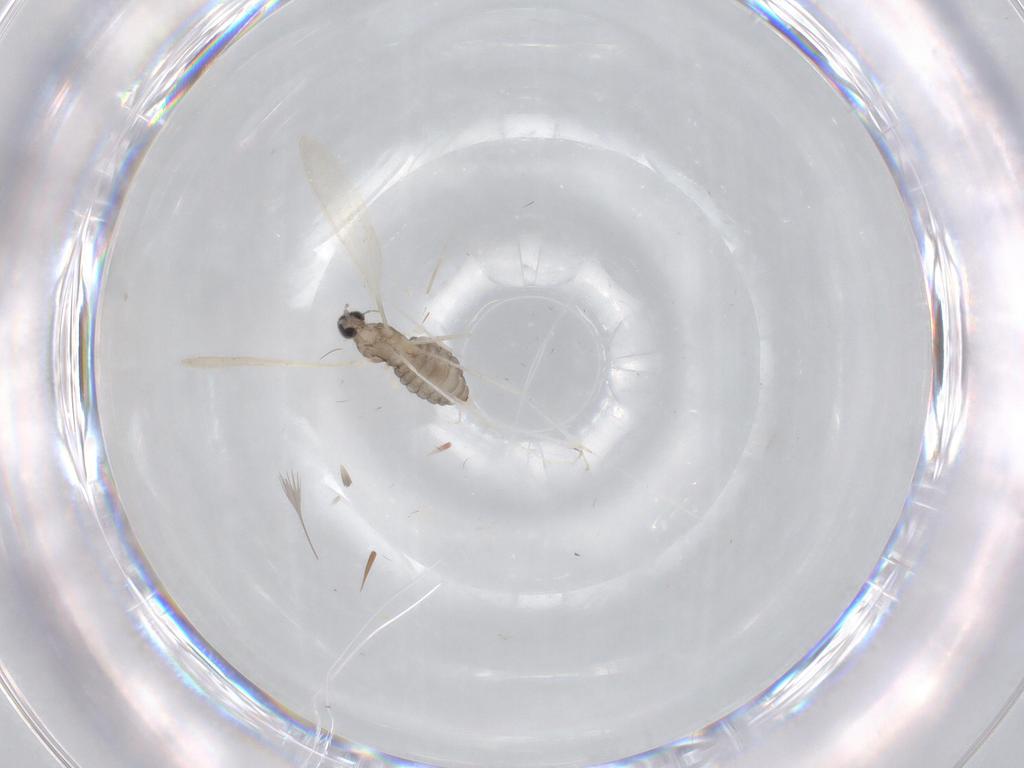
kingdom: Animalia
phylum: Arthropoda
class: Insecta
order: Diptera
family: Cecidomyiidae
